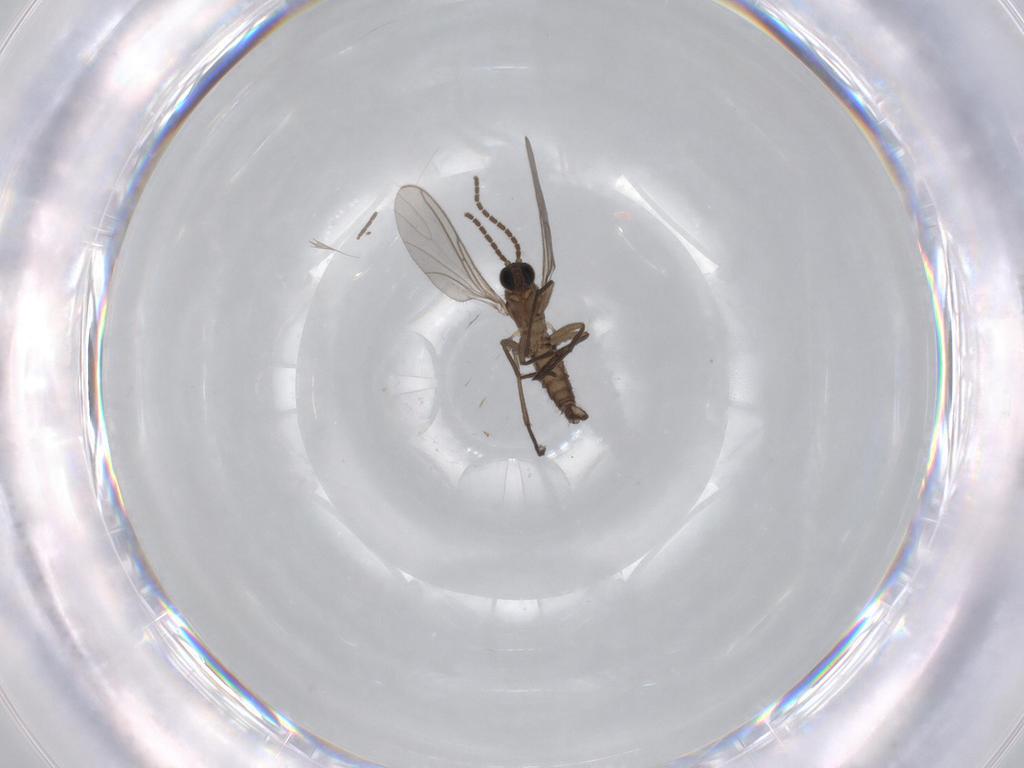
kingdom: Animalia
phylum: Arthropoda
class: Insecta
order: Diptera
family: Sciaridae
